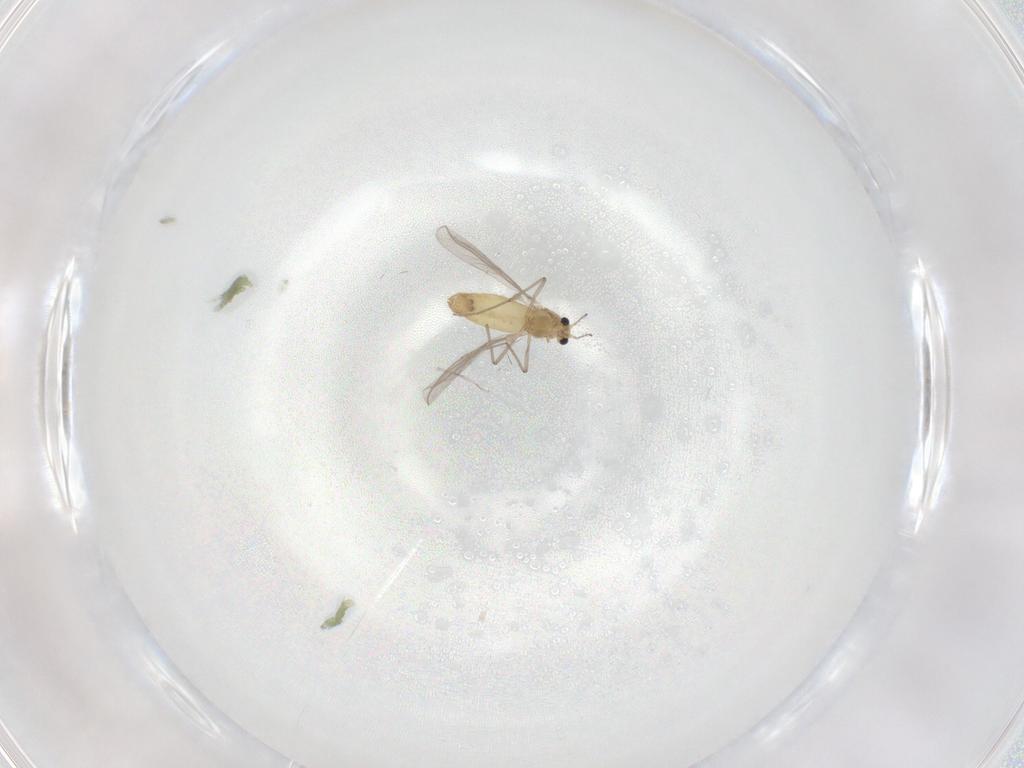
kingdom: Animalia
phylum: Arthropoda
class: Insecta
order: Diptera
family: Chironomidae
